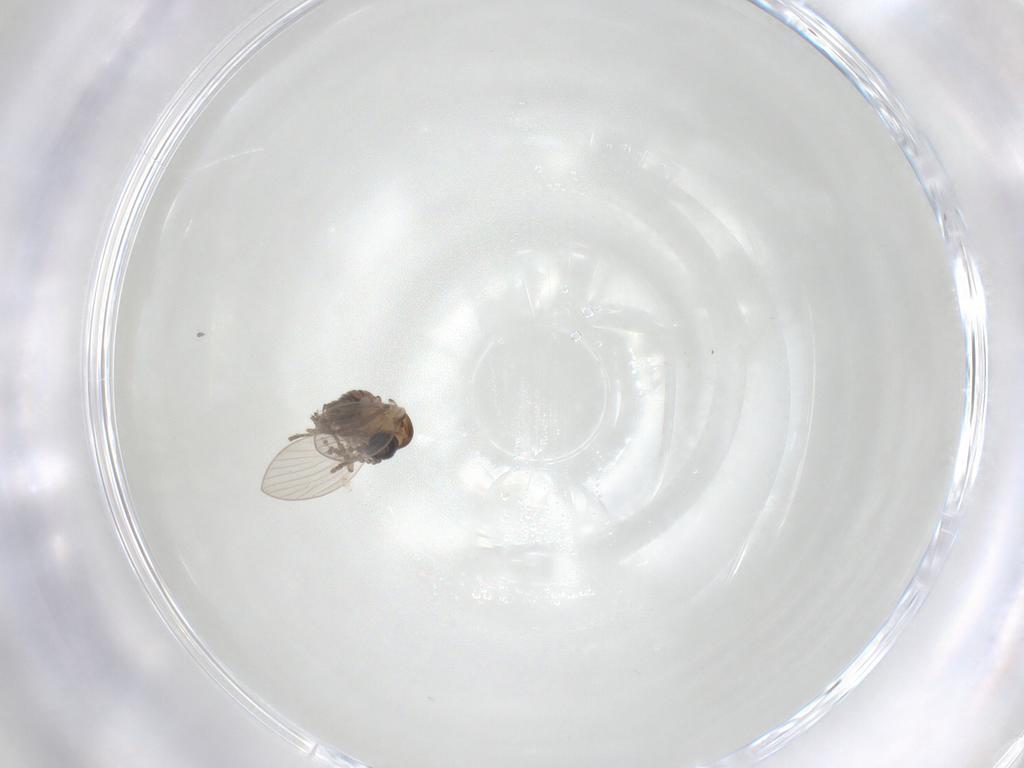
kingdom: Animalia
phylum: Arthropoda
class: Insecta
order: Diptera
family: Psychodidae
